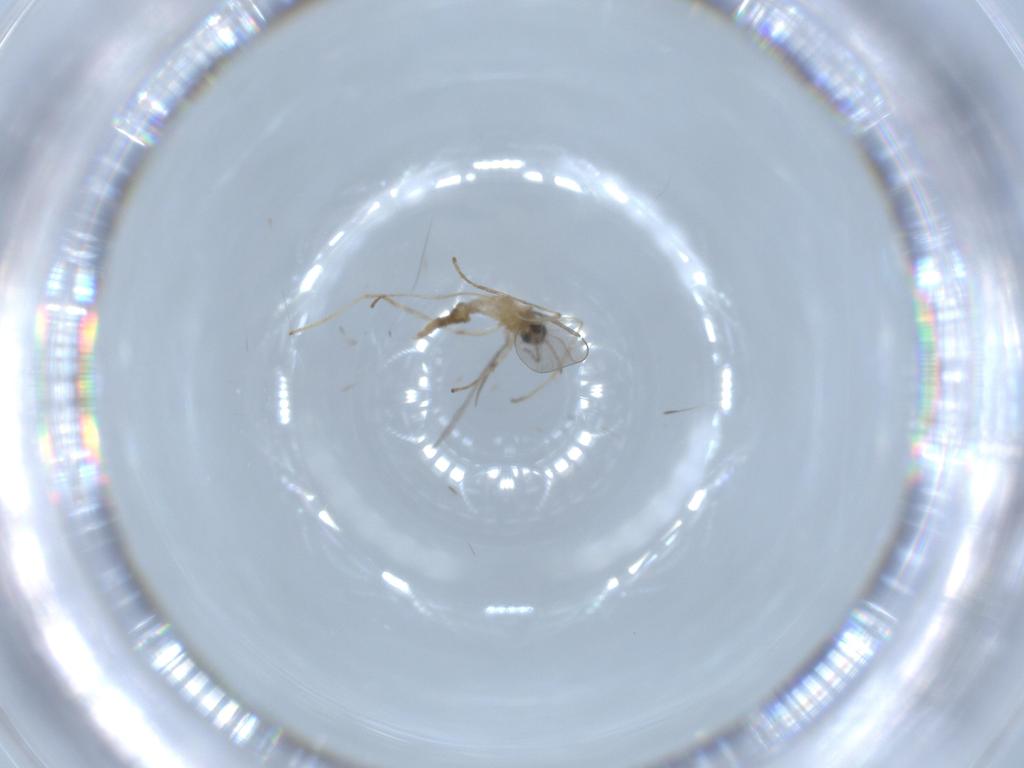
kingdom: Animalia
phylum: Arthropoda
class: Insecta
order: Diptera
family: Cecidomyiidae
